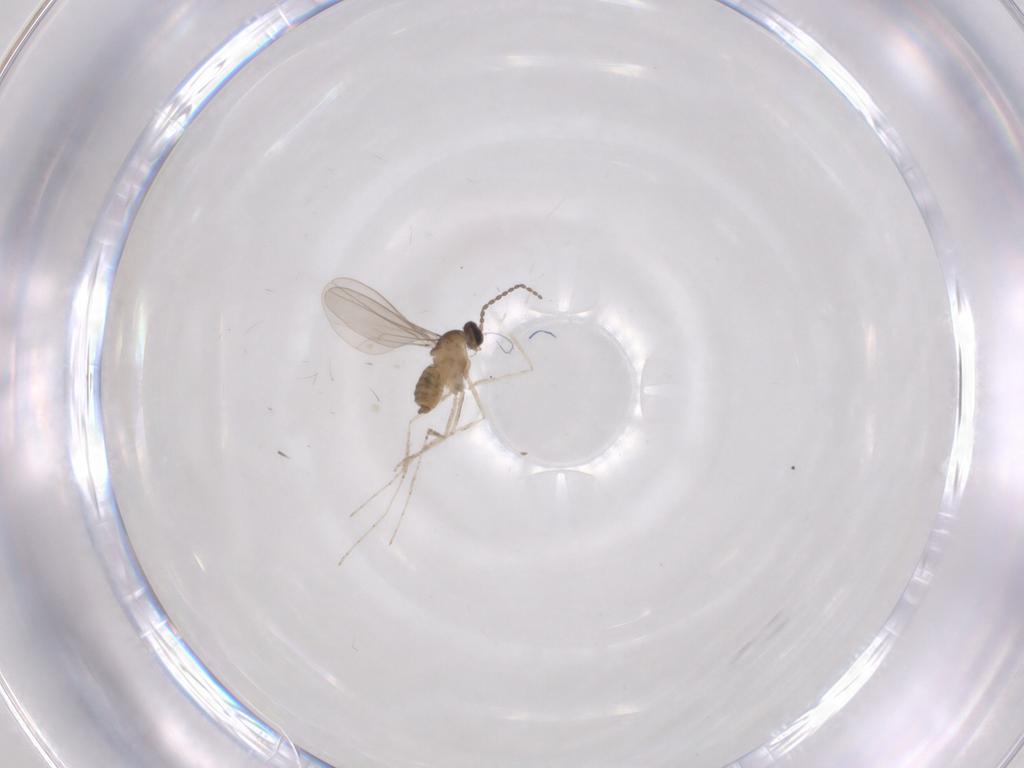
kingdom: Animalia
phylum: Arthropoda
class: Insecta
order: Diptera
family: Cecidomyiidae
